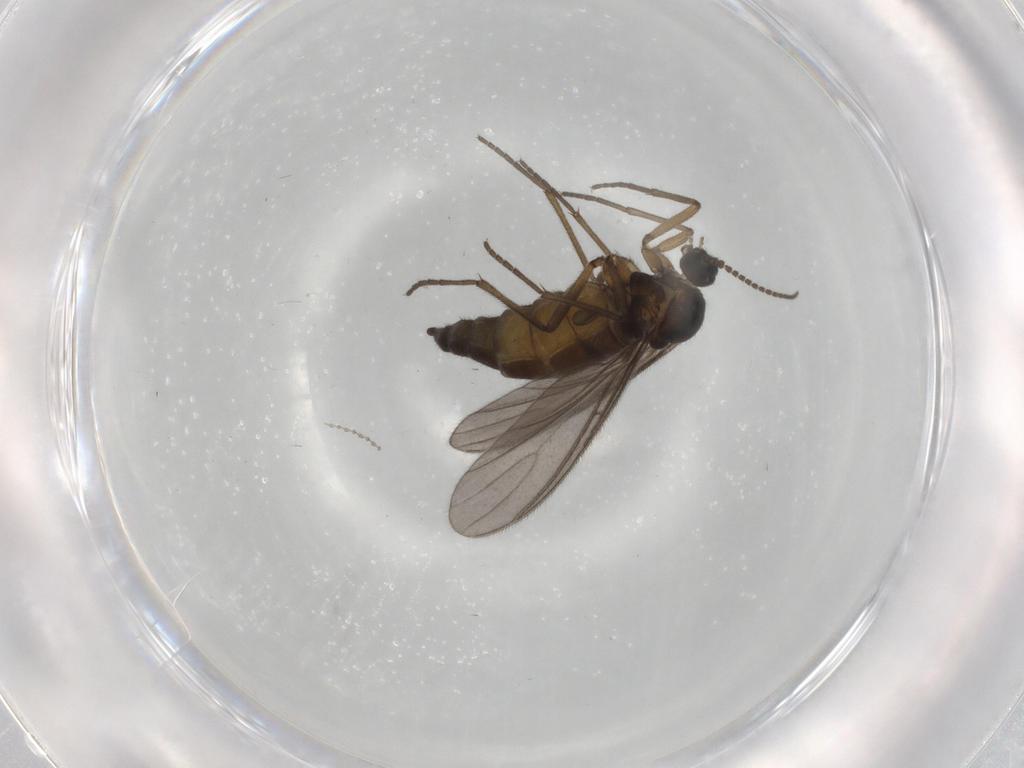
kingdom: Animalia
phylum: Arthropoda
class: Insecta
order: Diptera
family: Sciaridae
